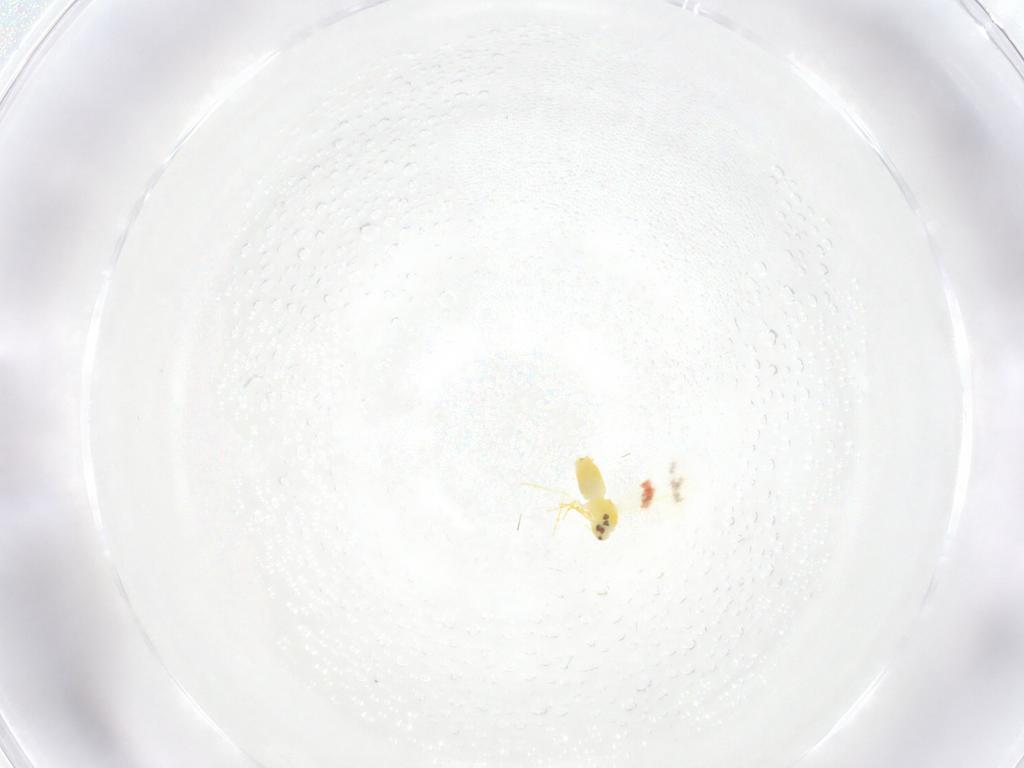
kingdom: Animalia
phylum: Arthropoda
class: Insecta
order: Hemiptera
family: Aleyrodidae
